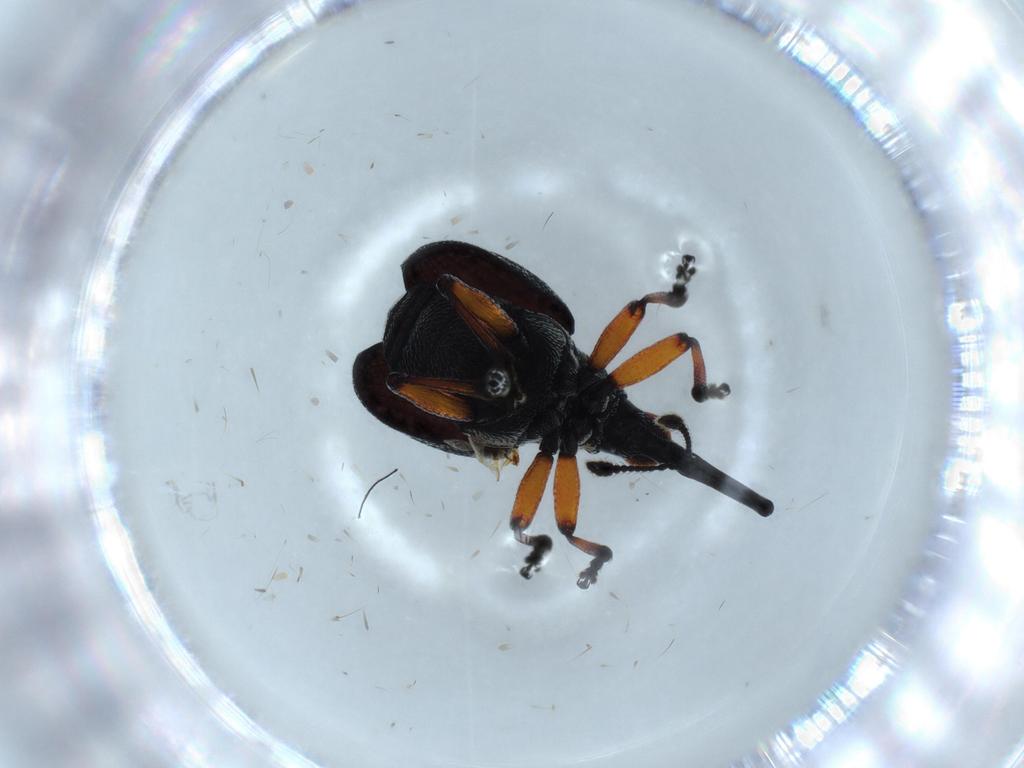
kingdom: Animalia
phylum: Arthropoda
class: Insecta
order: Coleoptera
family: Brentidae
